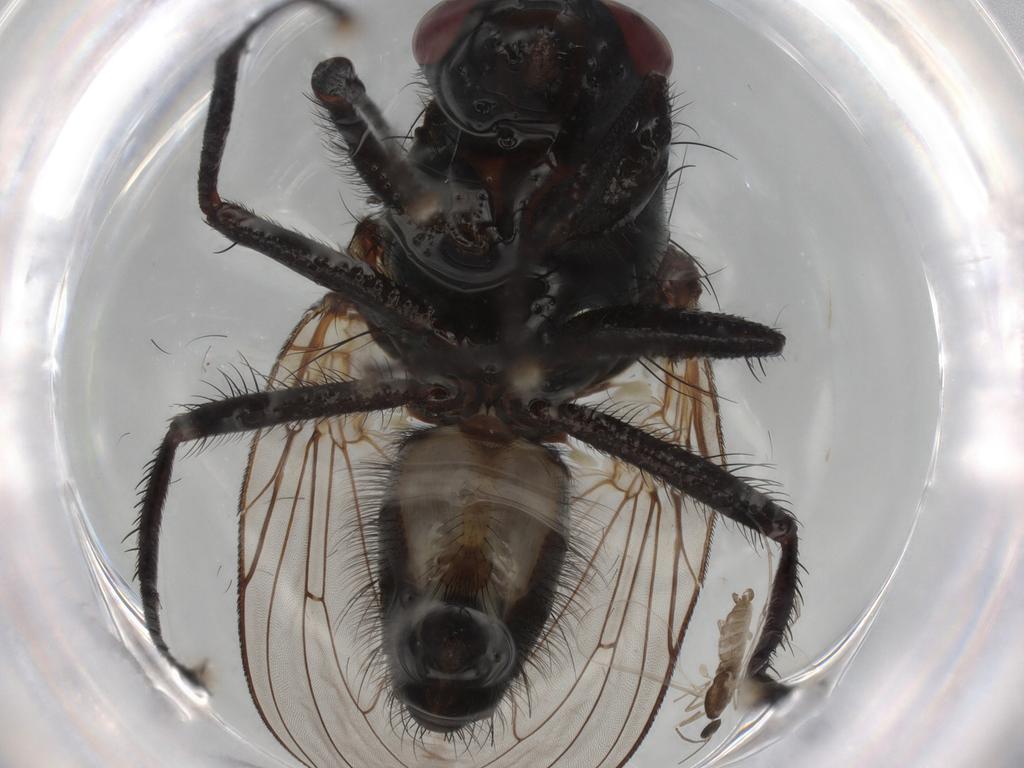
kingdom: Animalia
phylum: Arthropoda
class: Insecta
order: Diptera
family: Anthomyiidae
